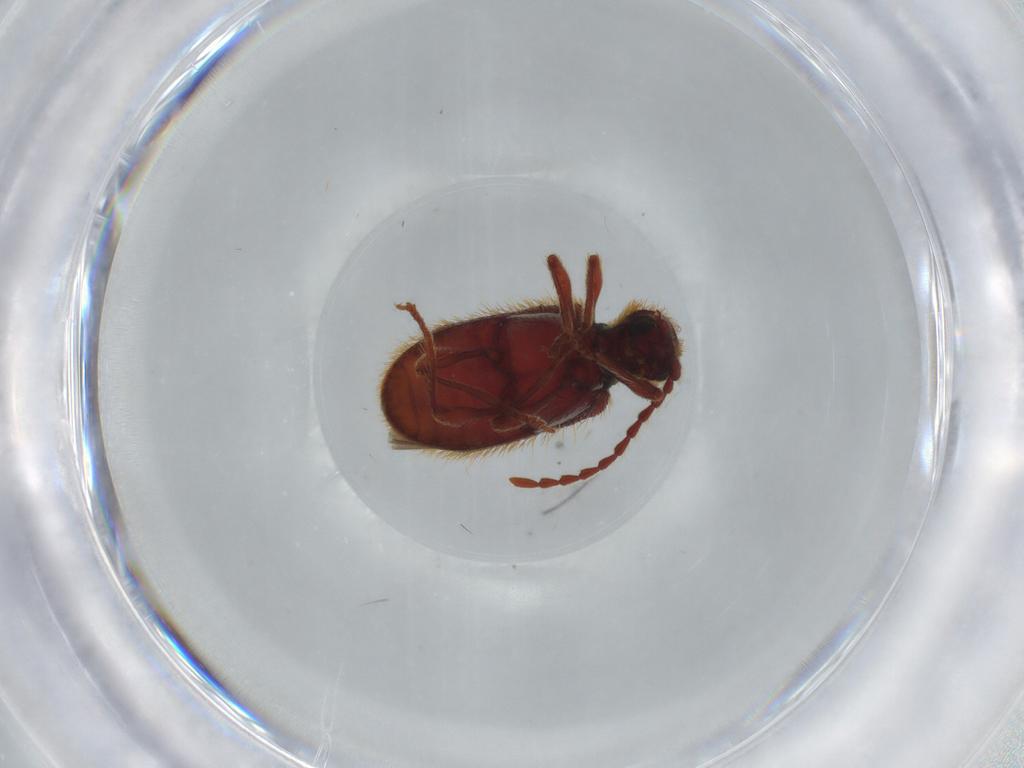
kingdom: Animalia
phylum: Arthropoda
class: Insecta
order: Coleoptera
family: Ptinidae
